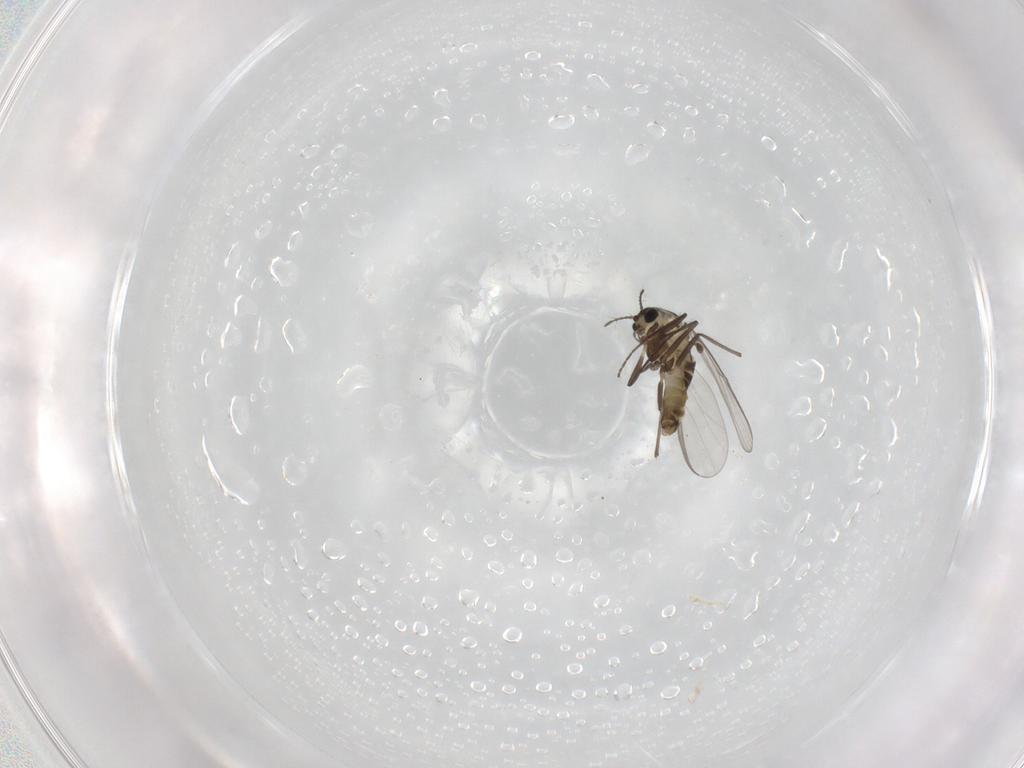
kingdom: Animalia
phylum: Arthropoda
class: Insecta
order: Diptera
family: Chironomidae
